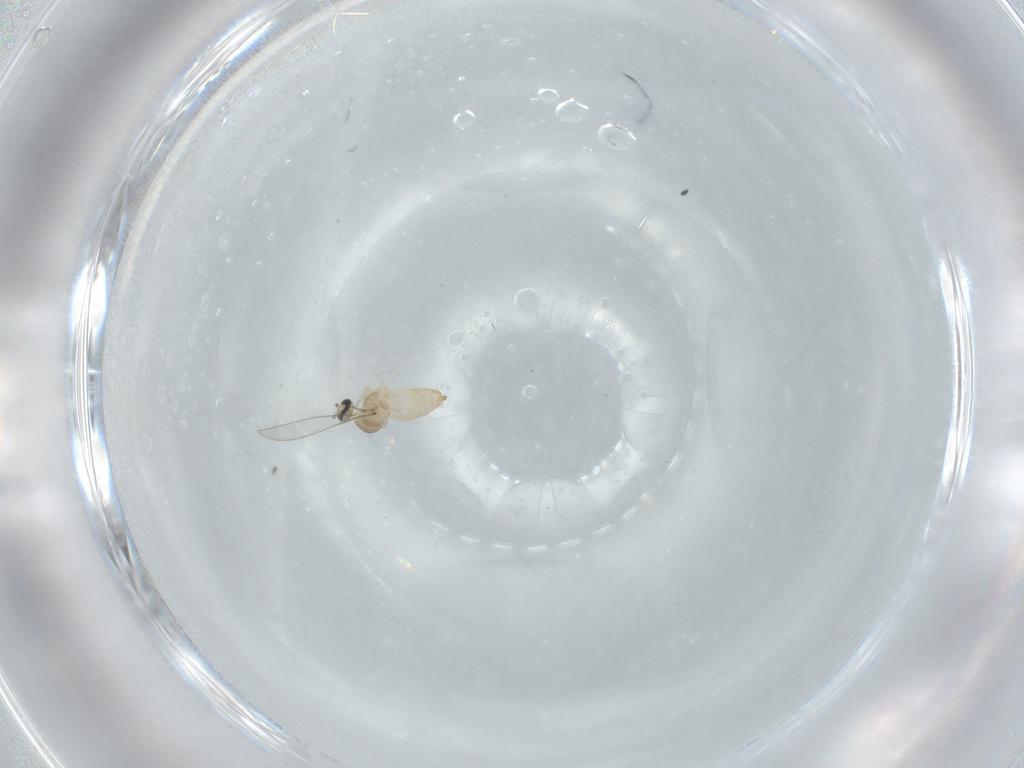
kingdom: Animalia
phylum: Arthropoda
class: Insecta
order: Diptera
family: Cecidomyiidae
